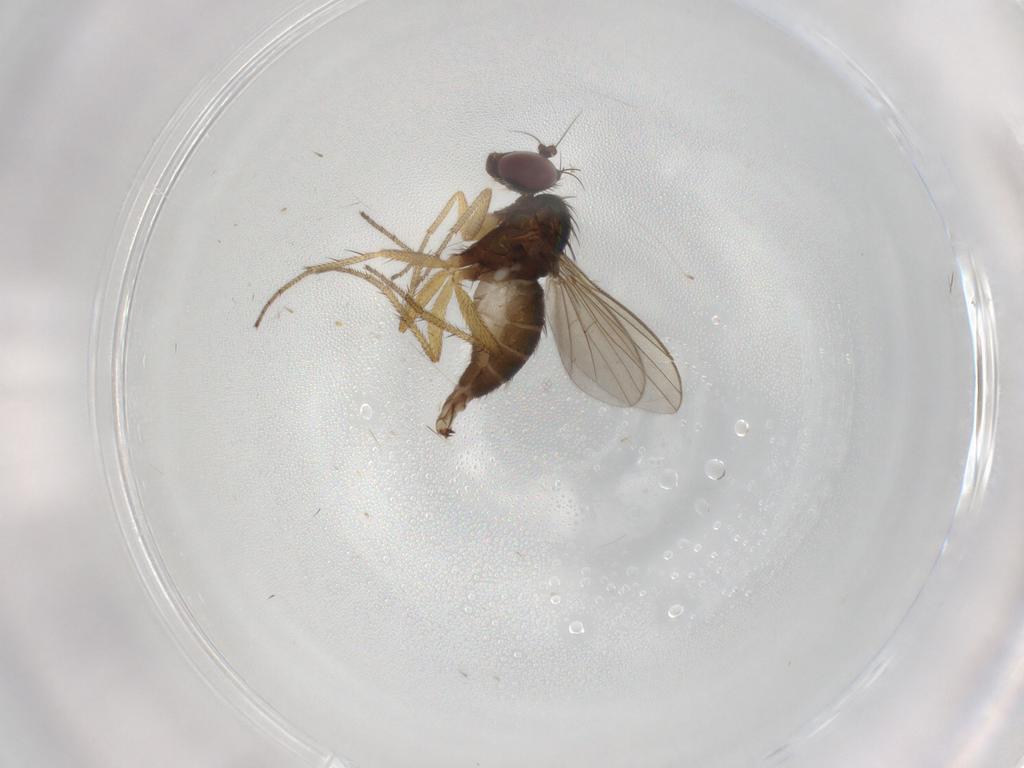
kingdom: Animalia
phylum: Arthropoda
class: Insecta
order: Diptera
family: Dolichopodidae
